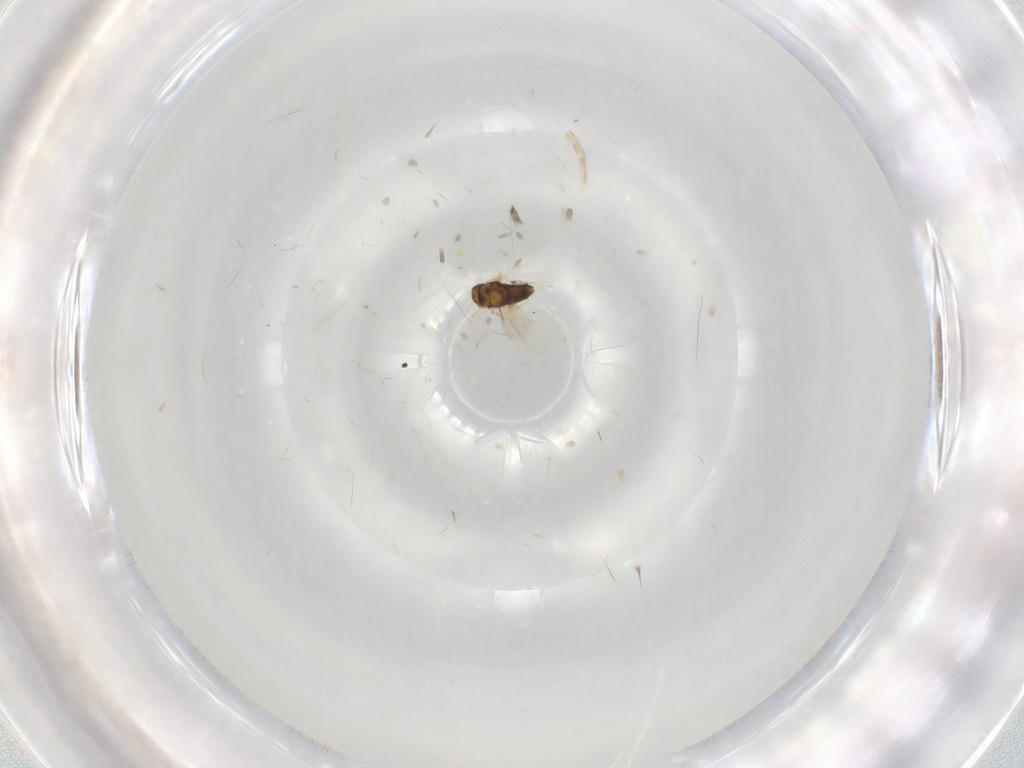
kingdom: Animalia
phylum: Arthropoda
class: Insecta
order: Hymenoptera
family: Aphelinidae
